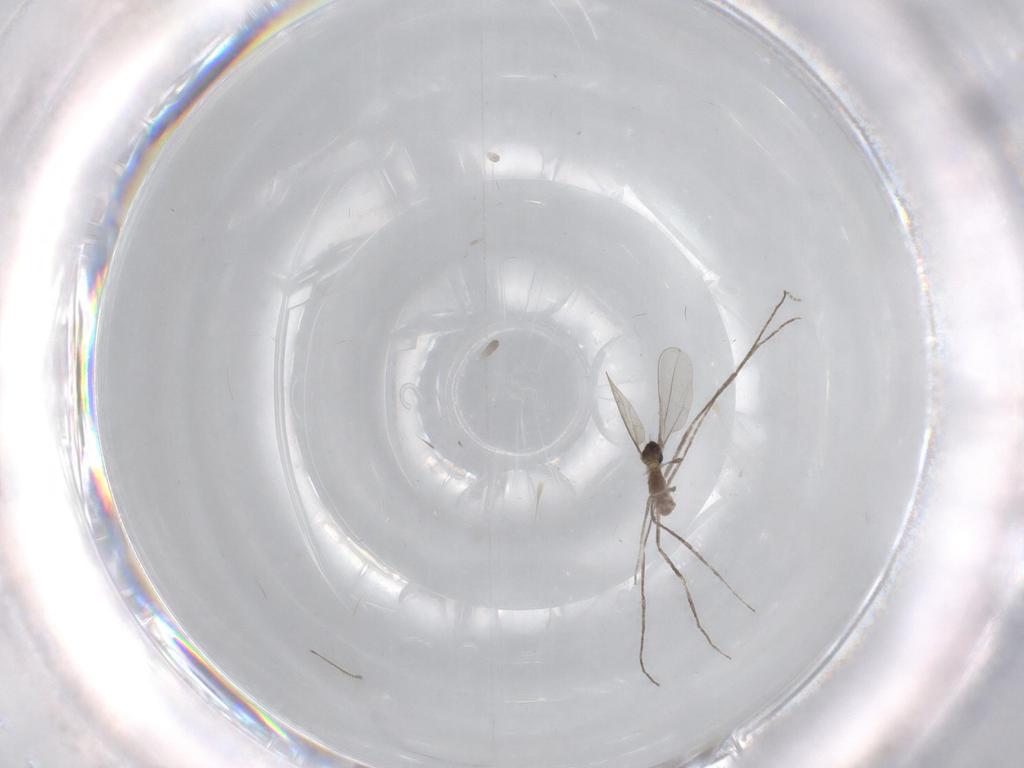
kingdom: Animalia
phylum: Arthropoda
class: Insecta
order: Diptera
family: Chironomidae
